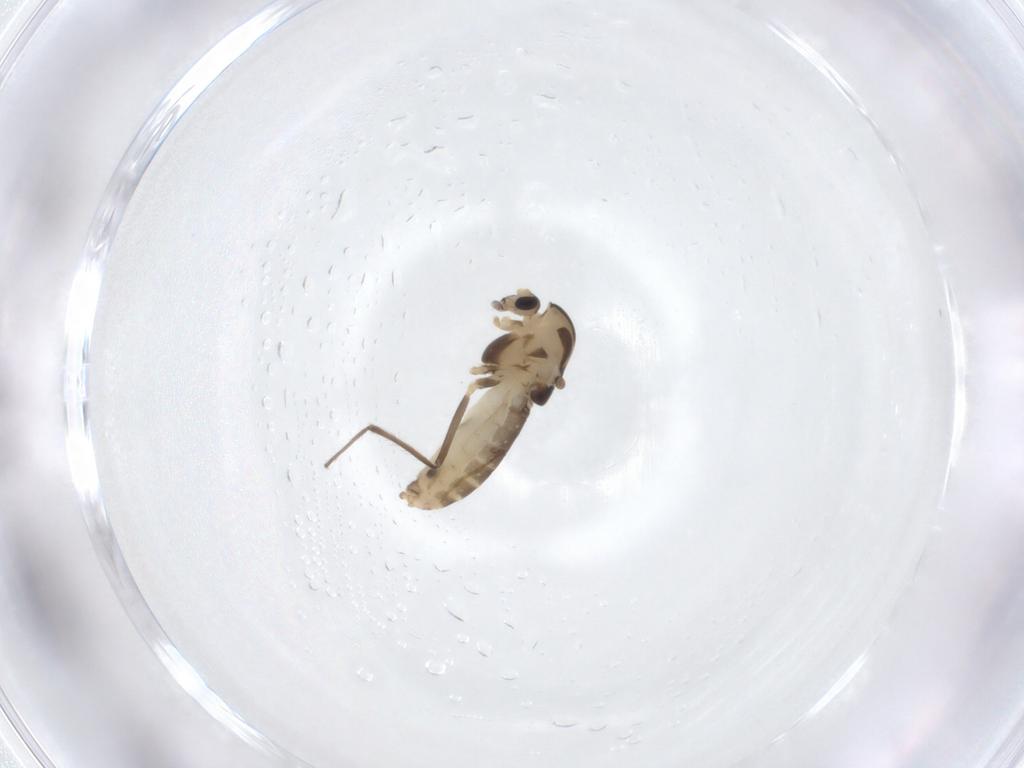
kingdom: Animalia
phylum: Arthropoda
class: Insecta
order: Diptera
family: Chironomidae
